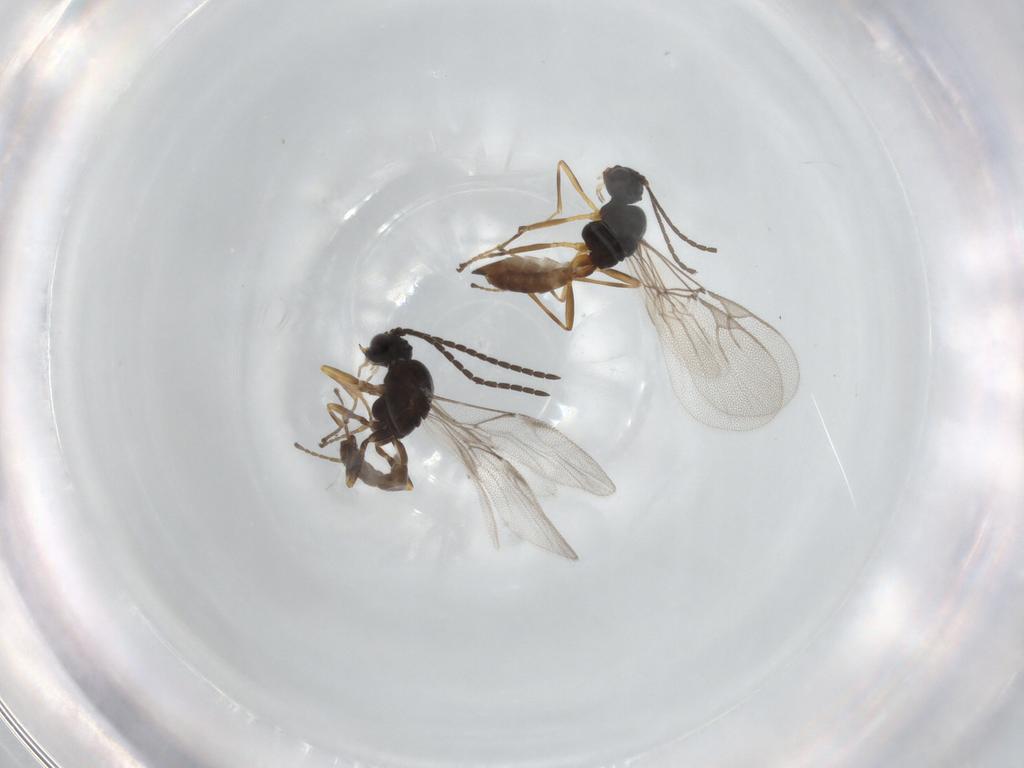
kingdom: Animalia
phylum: Arthropoda
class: Insecta
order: Hymenoptera
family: Braconidae
